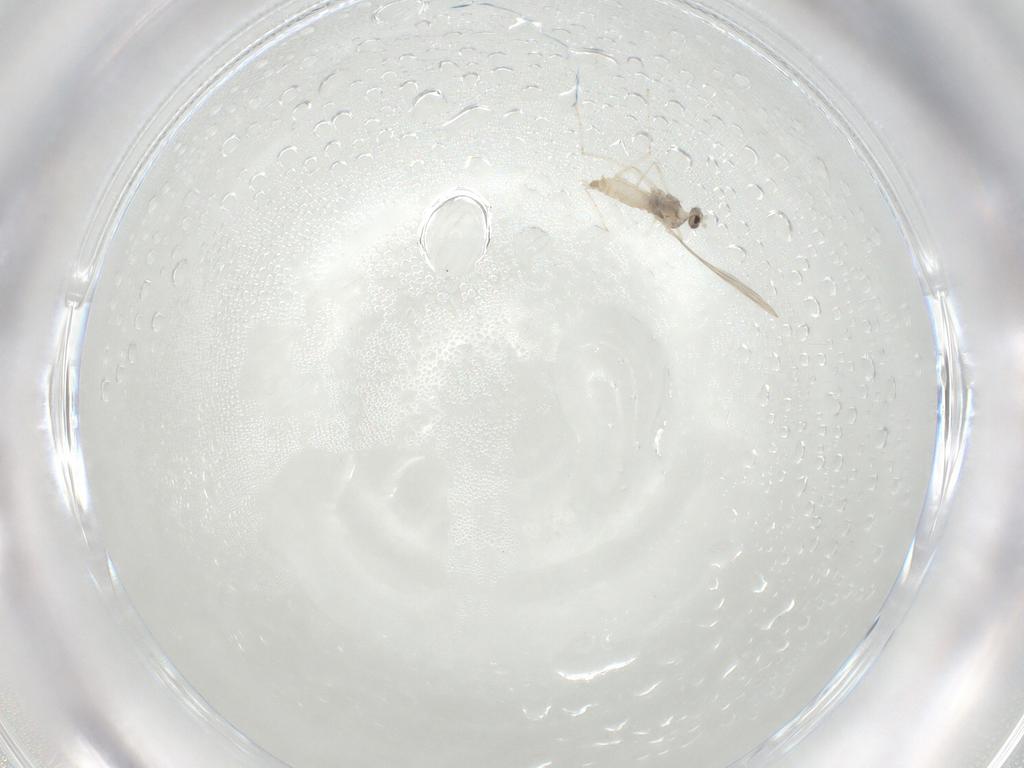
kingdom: Animalia
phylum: Arthropoda
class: Insecta
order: Diptera
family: Cecidomyiidae
